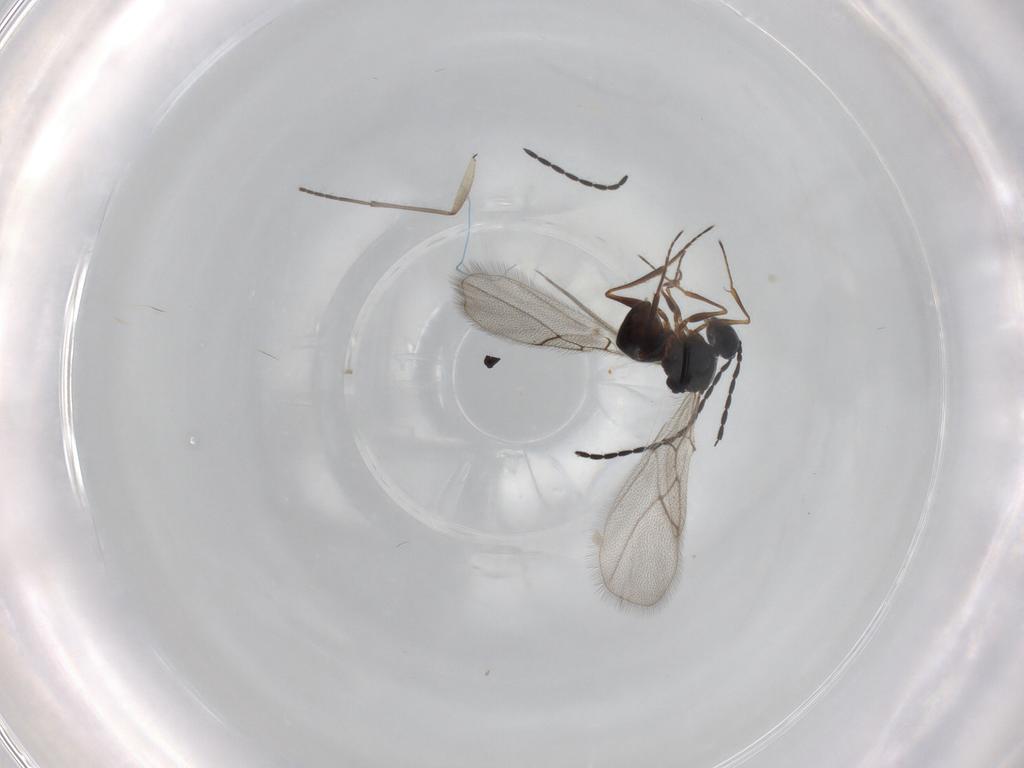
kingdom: Animalia
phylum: Arthropoda
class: Insecta
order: Hymenoptera
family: Figitidae
